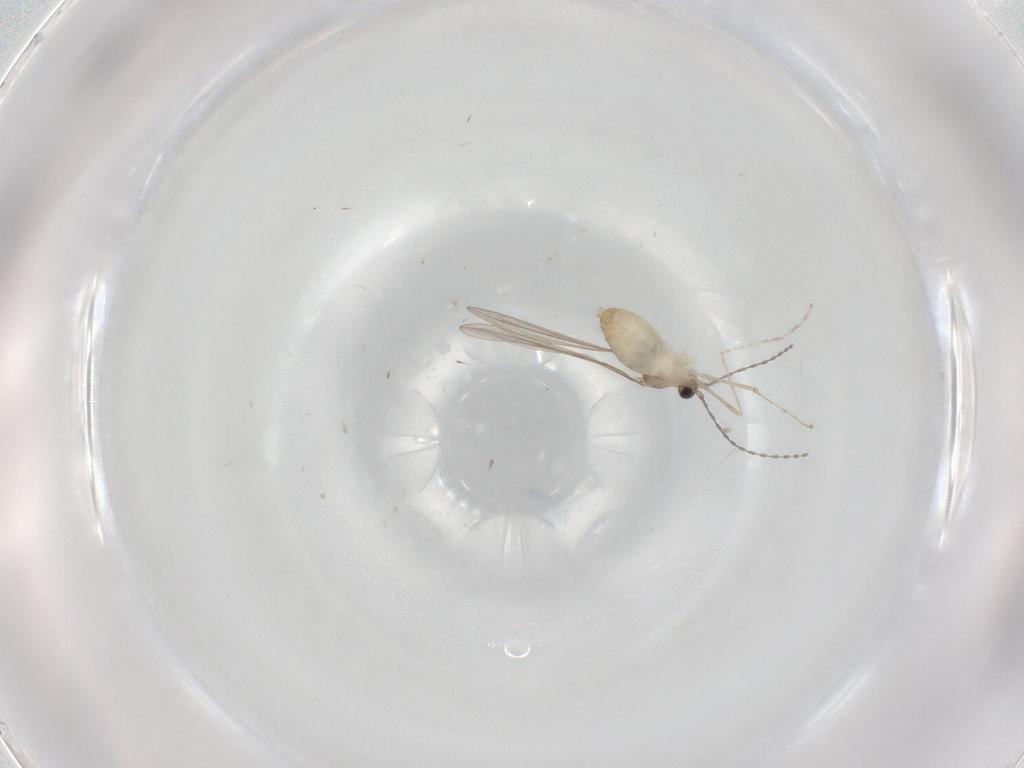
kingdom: Animalia
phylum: Arthropoda
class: Insecta
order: Diptera
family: Cecidomyiidae
